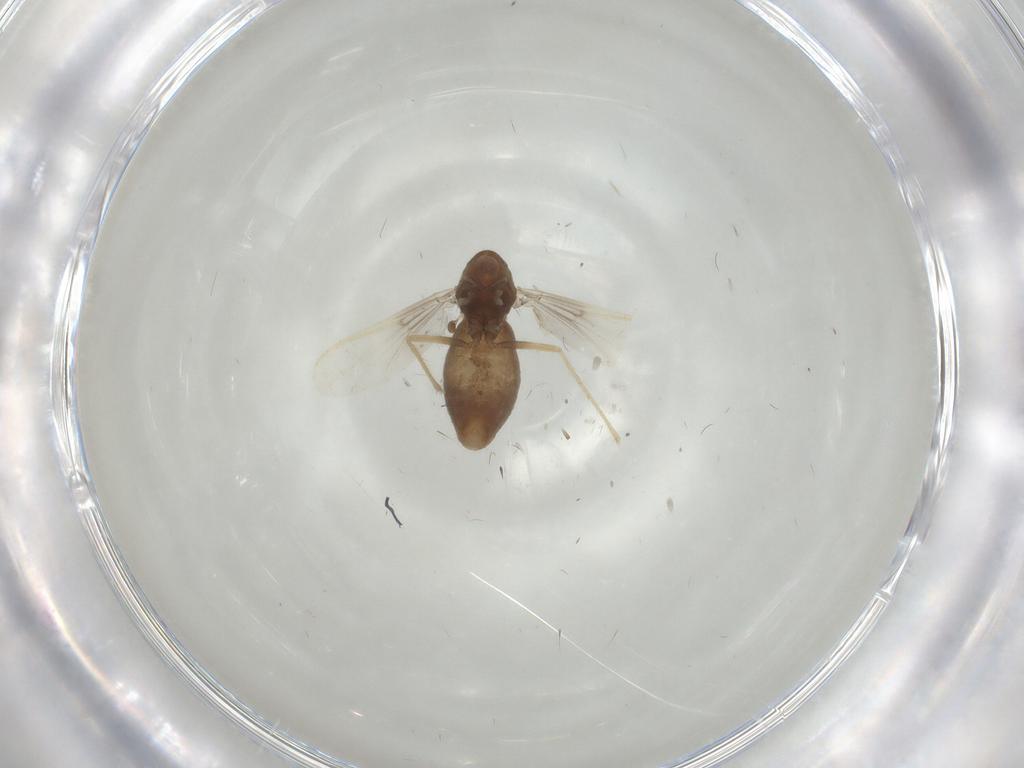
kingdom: Animalia
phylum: Arthropoda
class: Insecta
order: Diptera
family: Chironomidae
